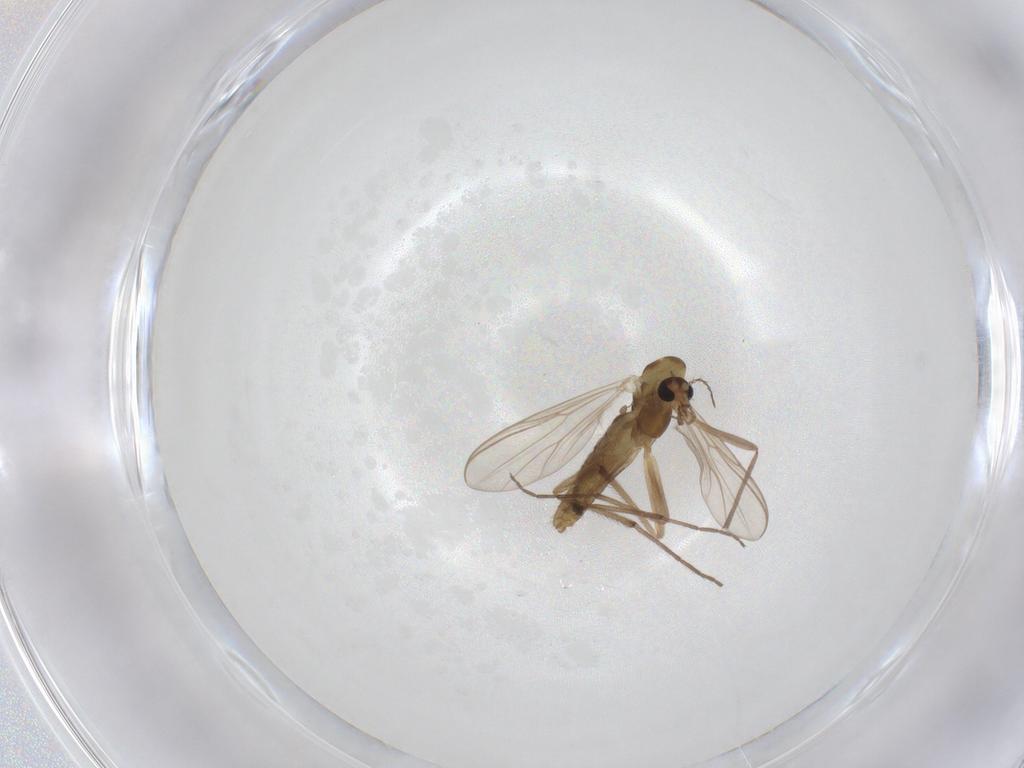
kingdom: Animalia
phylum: Arthropoda
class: Insecta
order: Diptera
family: Chironomidae
